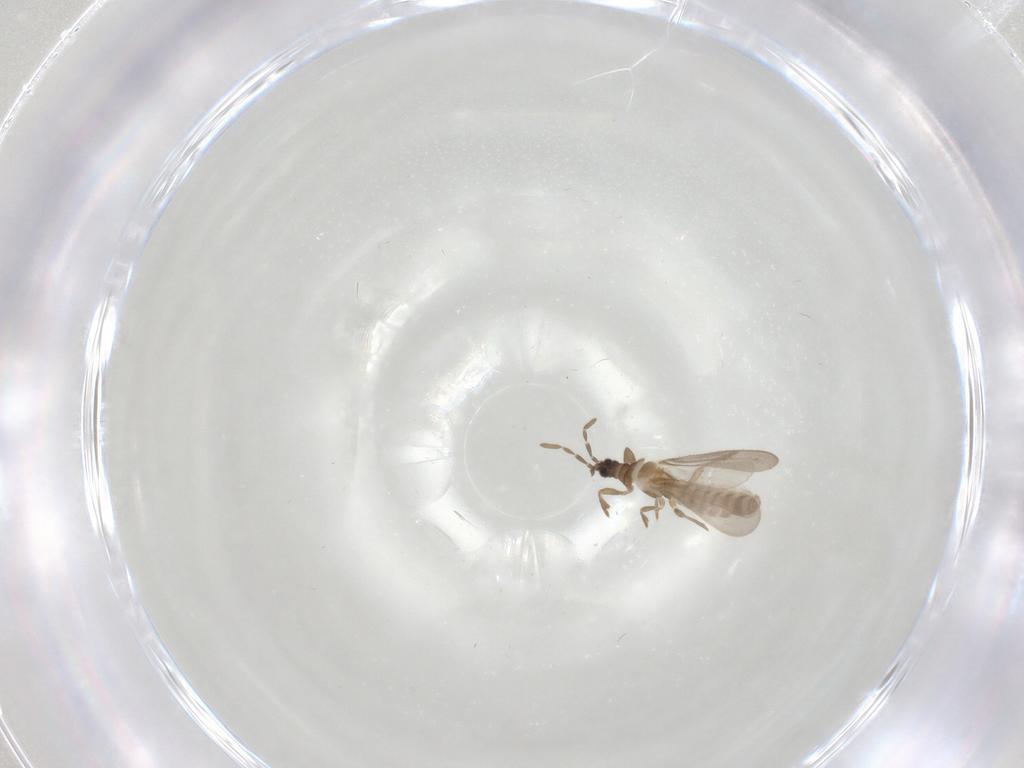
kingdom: Animalia
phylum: Arthropoda
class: Insecta
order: Hemiptera
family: Enicocephalidae
